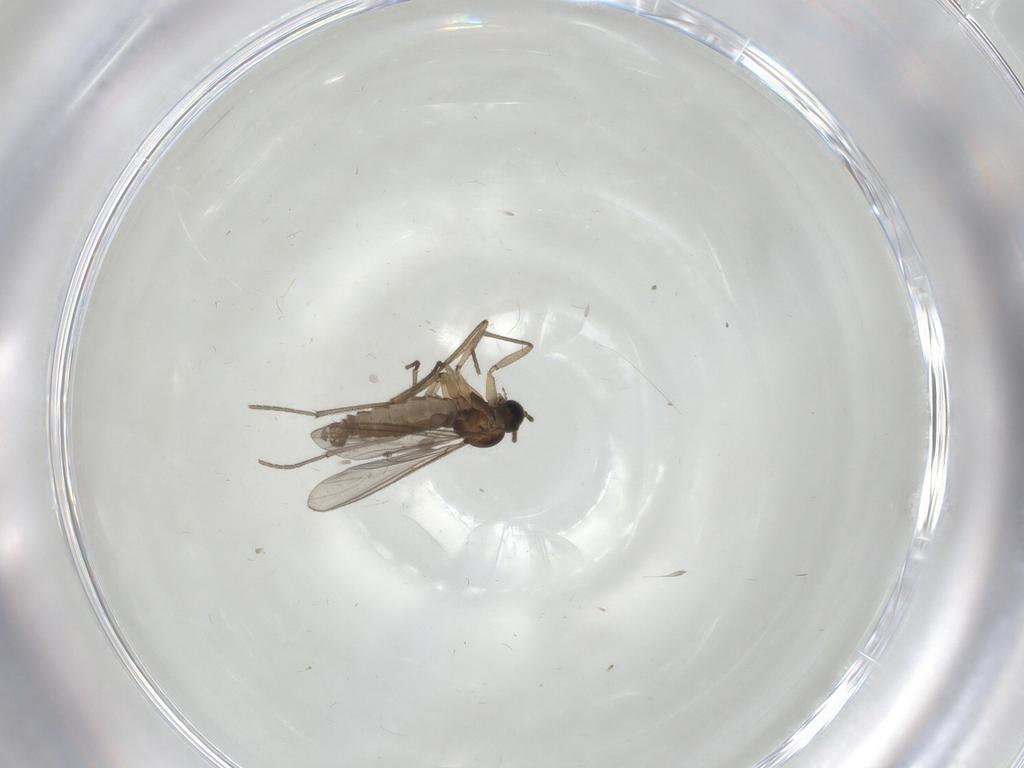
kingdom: Animalia
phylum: Arthropoda
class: Insecta
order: Diptera
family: Sciaridae
